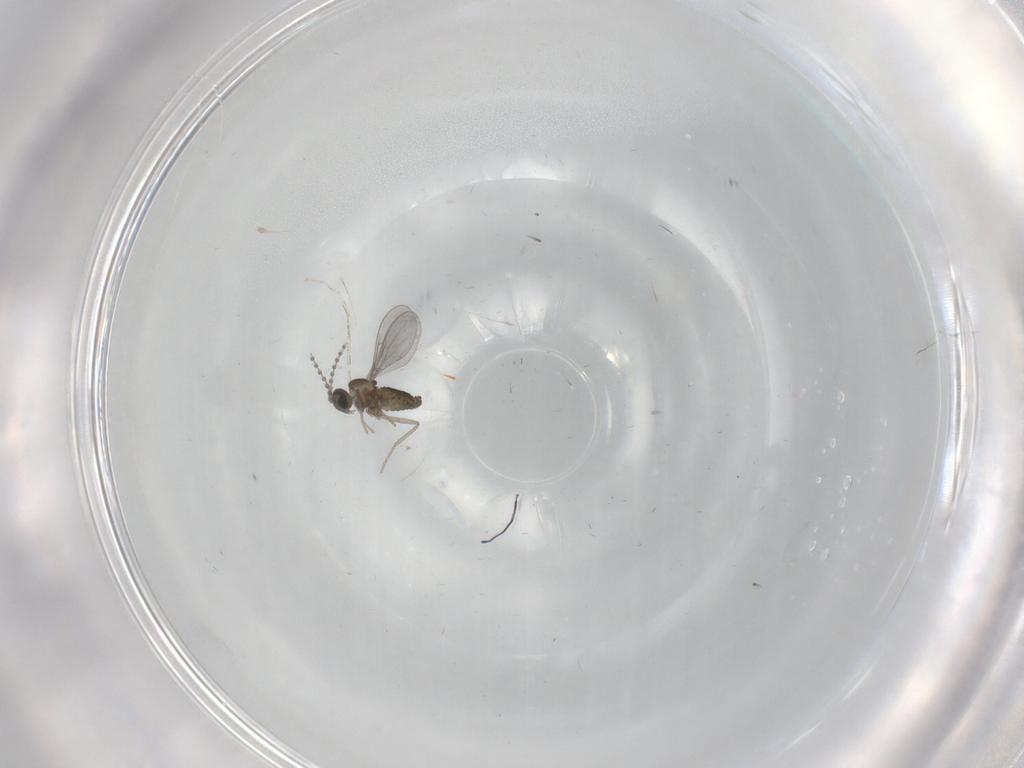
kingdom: Animalia
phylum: Arthropoda
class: Insecta
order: Diptera
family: Cecidomyiidae
